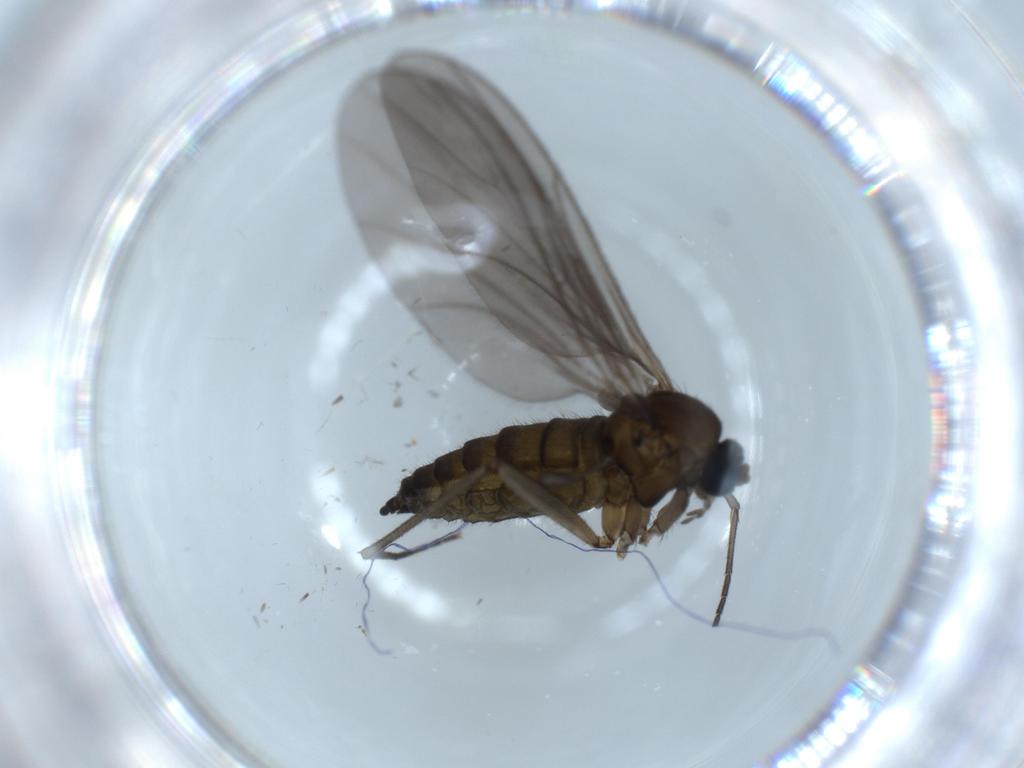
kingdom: Animalia
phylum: Arthropoda
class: Insecta
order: Diptera
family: Sciaridae
